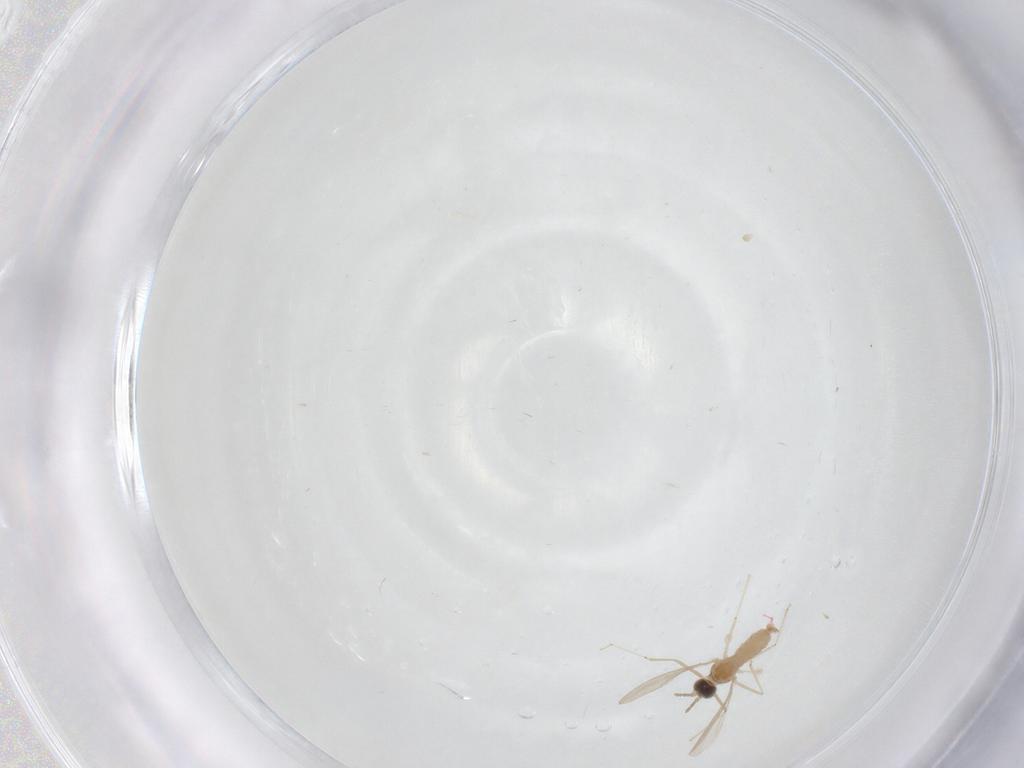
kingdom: Animalia
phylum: Arthropoda
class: Insecta
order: Diptera
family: Cecidomyiidae
